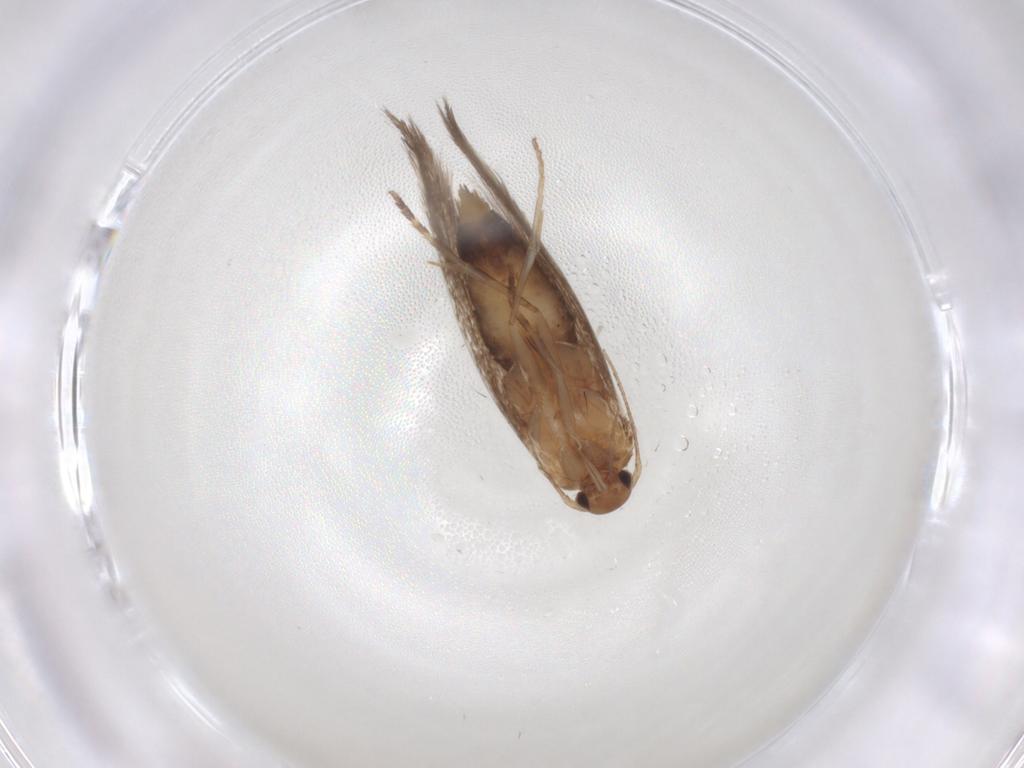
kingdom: Animalia
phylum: Arthropoda
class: Insecta
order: Lepidoptera
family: Elachistidae
